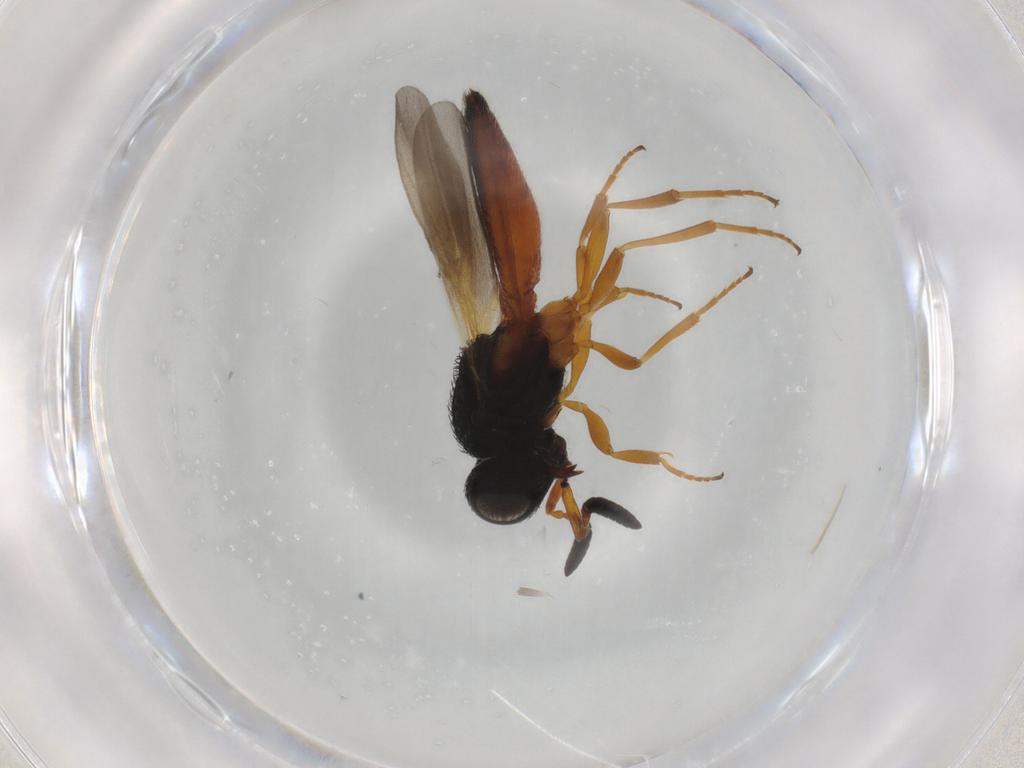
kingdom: Animalia
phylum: Arthropoda
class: Insecta
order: Hymenoptera
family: Scelionidae
